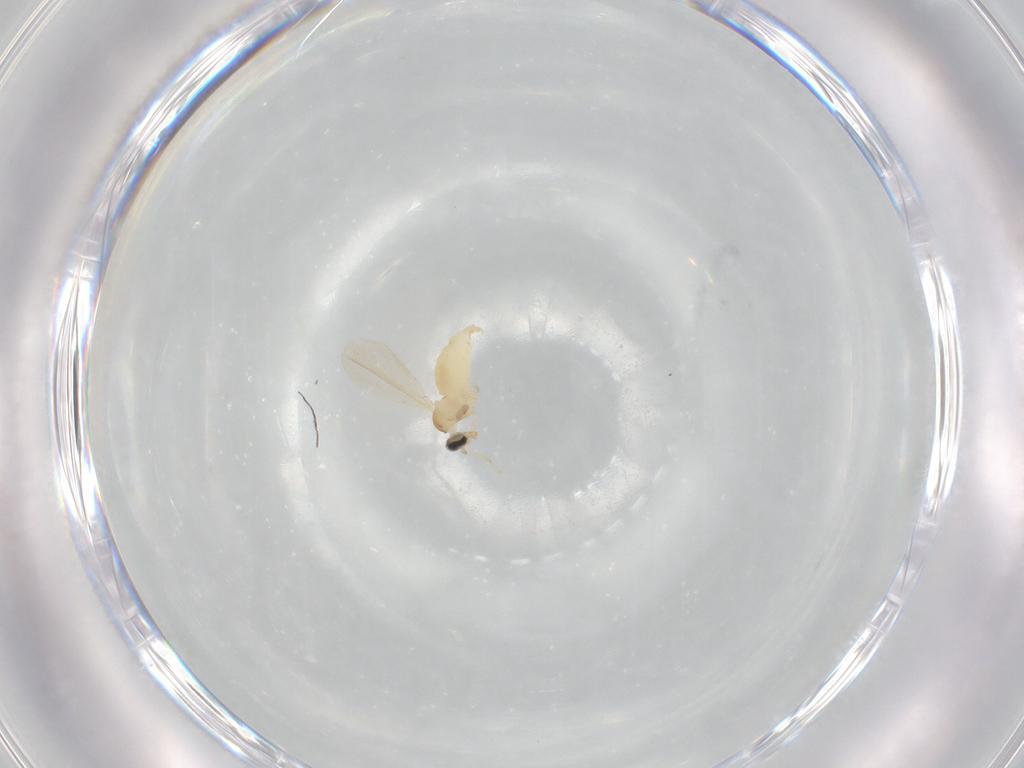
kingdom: Animalia
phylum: Arthropoda
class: Insecta
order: Diptera
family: Cecidomyiidae
